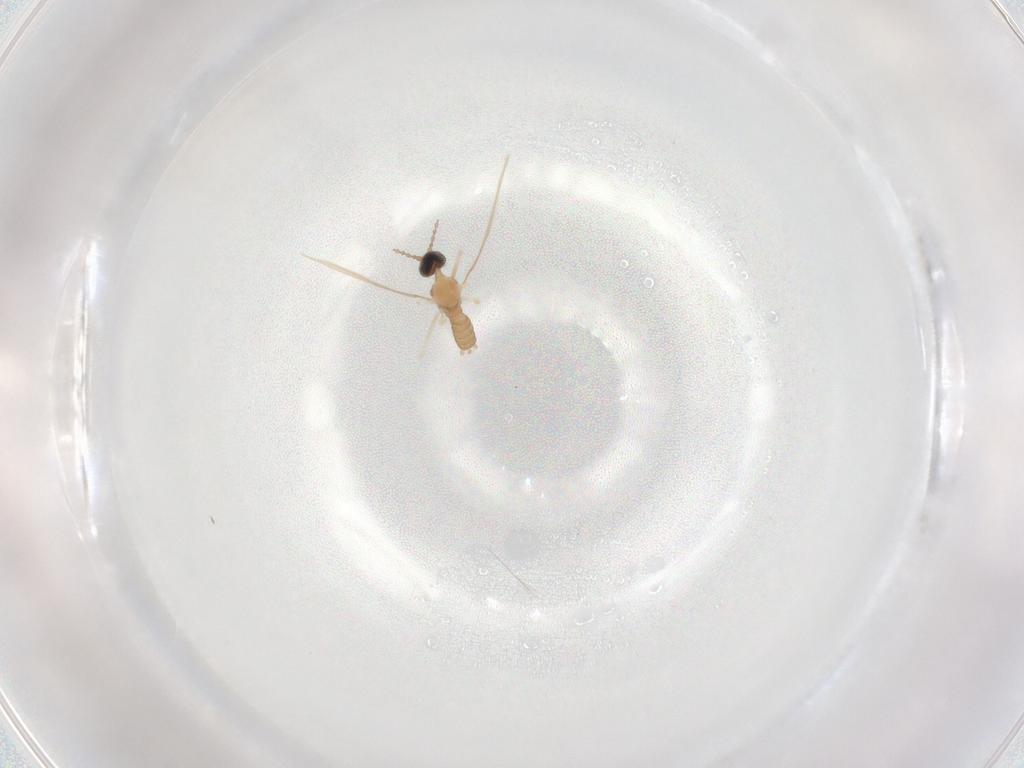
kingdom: Animalia
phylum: Arthropoda
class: Insecta
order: Diptera
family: Cecidomyiidae
